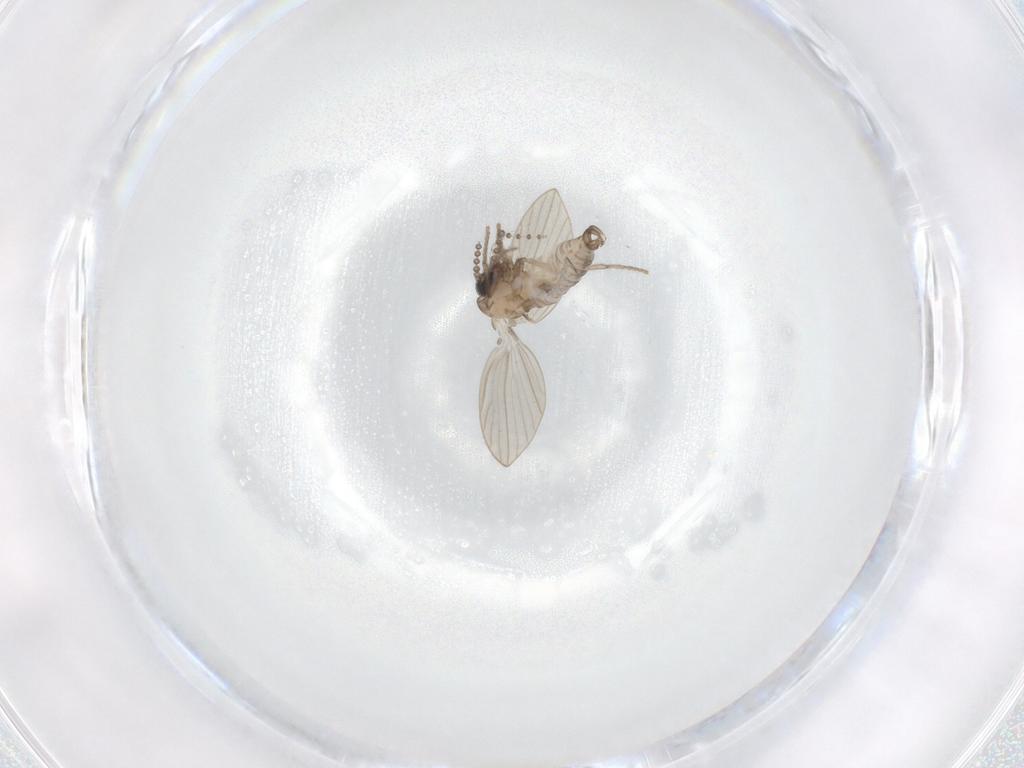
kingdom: Animalia
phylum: Arthropoda
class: Insecta
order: Diptera
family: Psychodidae
